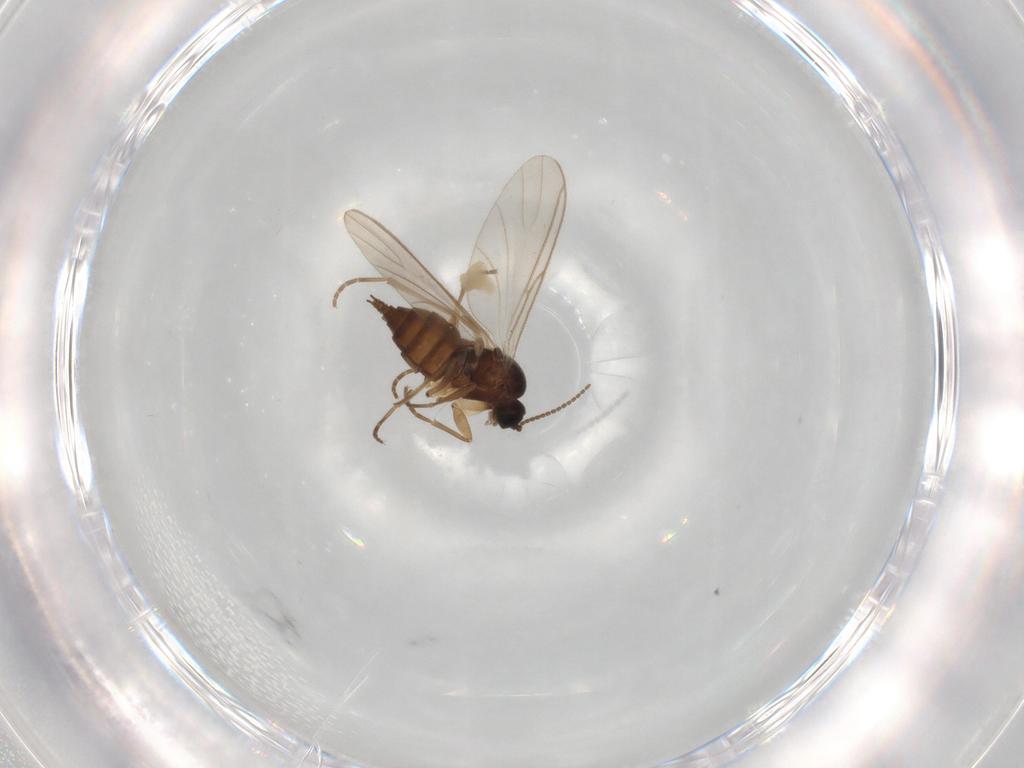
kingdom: Animalia
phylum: Arthropoda
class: Insecta
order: Diptera
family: Sciaridae
